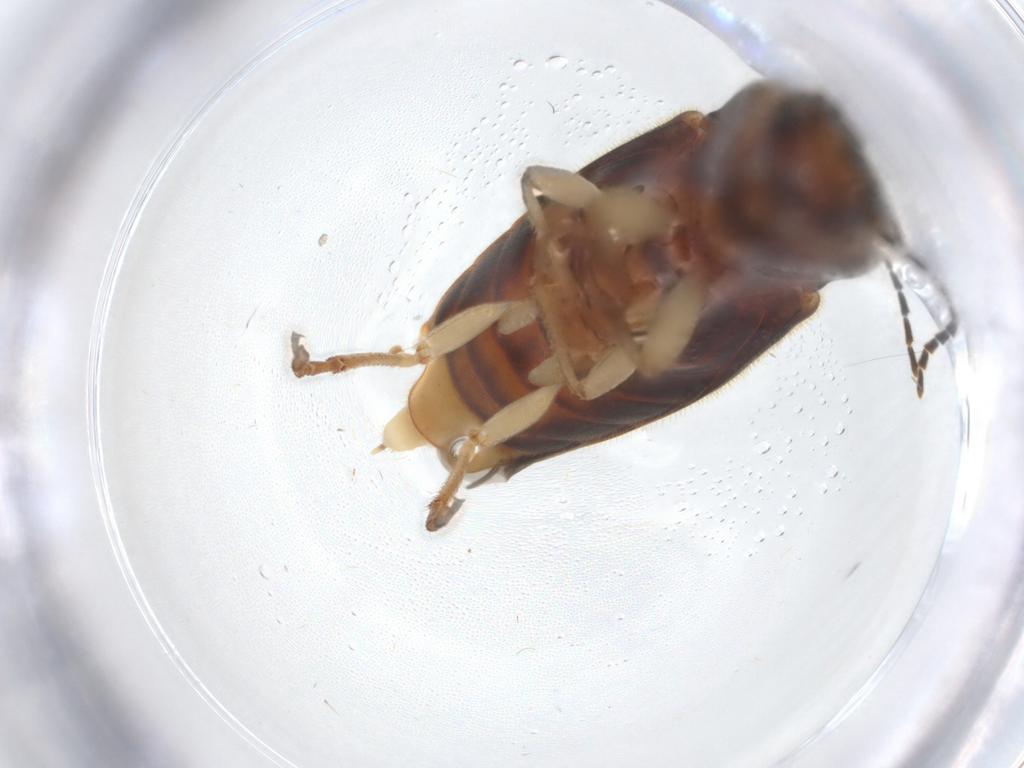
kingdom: Animalia
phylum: Arthropoda
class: Insecta
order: Coleoptera
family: Elateridae
